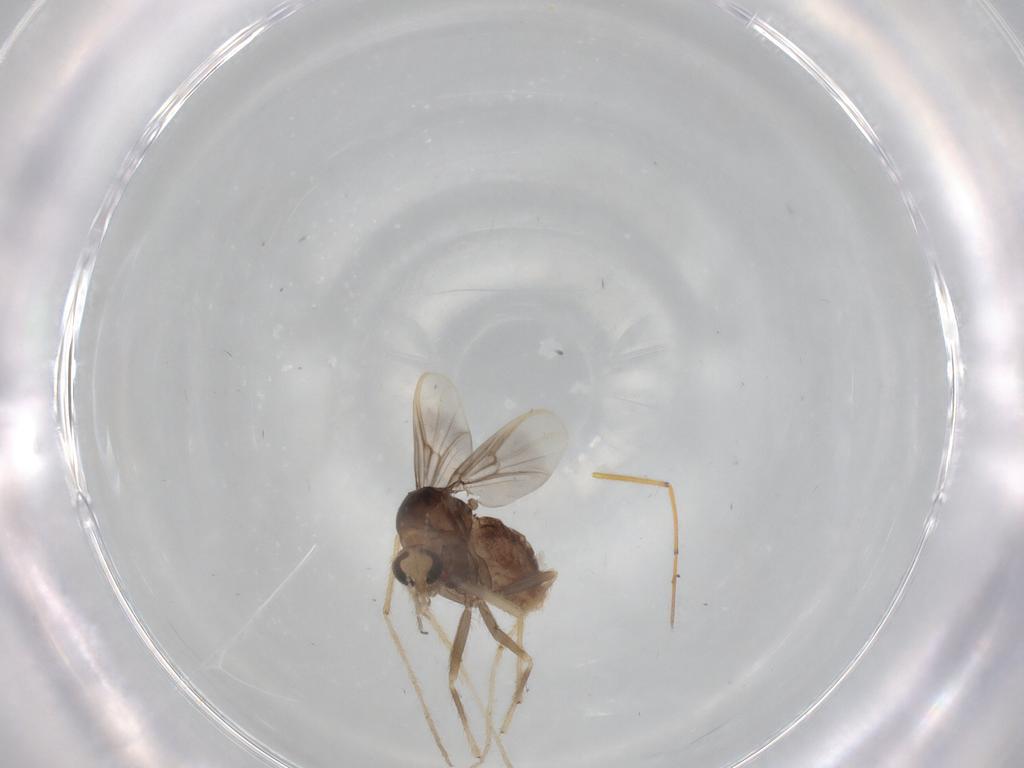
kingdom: Animalia
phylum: Arthropoda
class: Insecta
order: Diptera
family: Chironomidae
